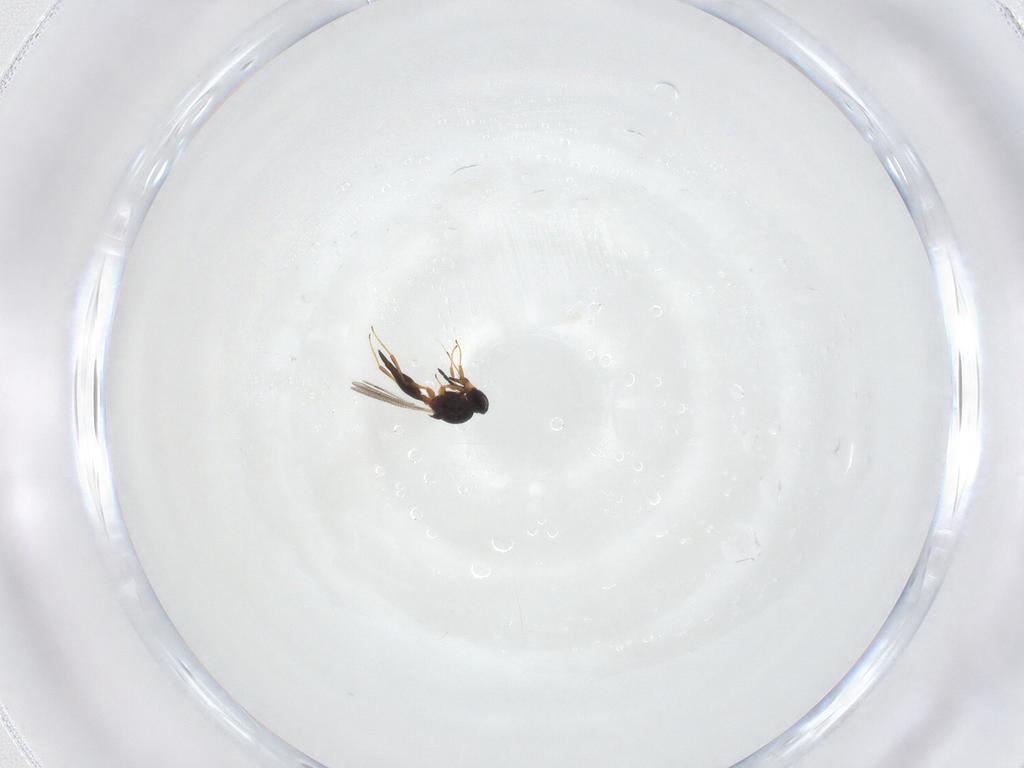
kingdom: Animalia
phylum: Arthropoda
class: Insecta
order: Hymenoptera
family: Platygastridae
